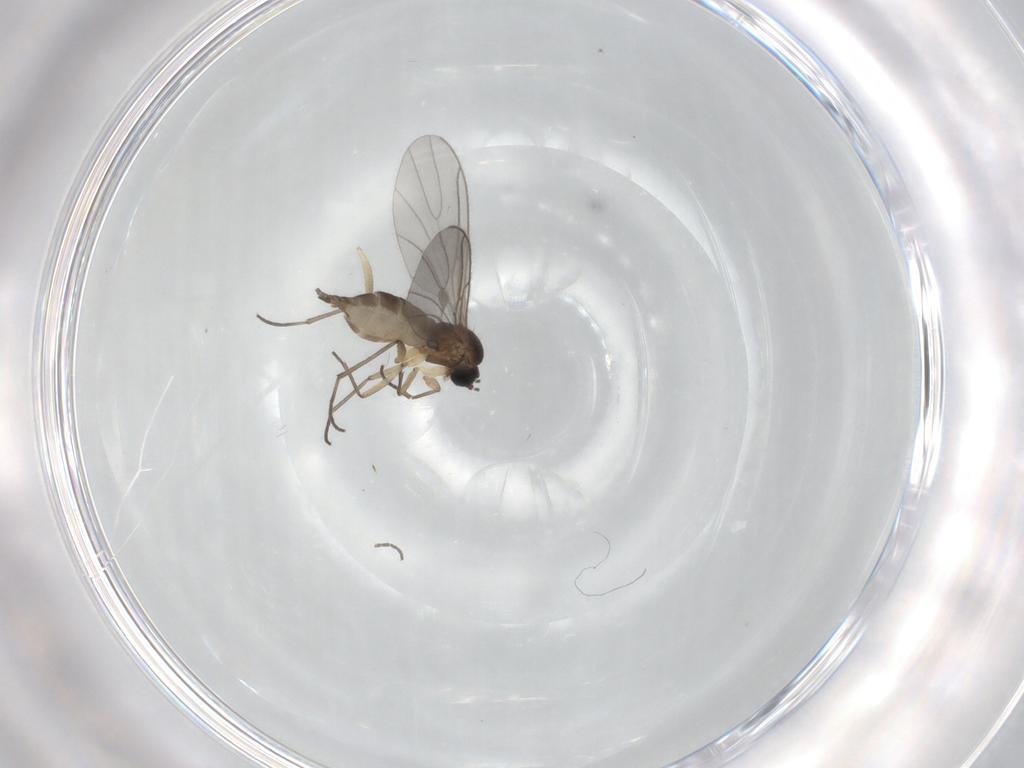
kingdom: Animalia
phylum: Arthropoda
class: Insecta
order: Diptera
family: Sciaridae
